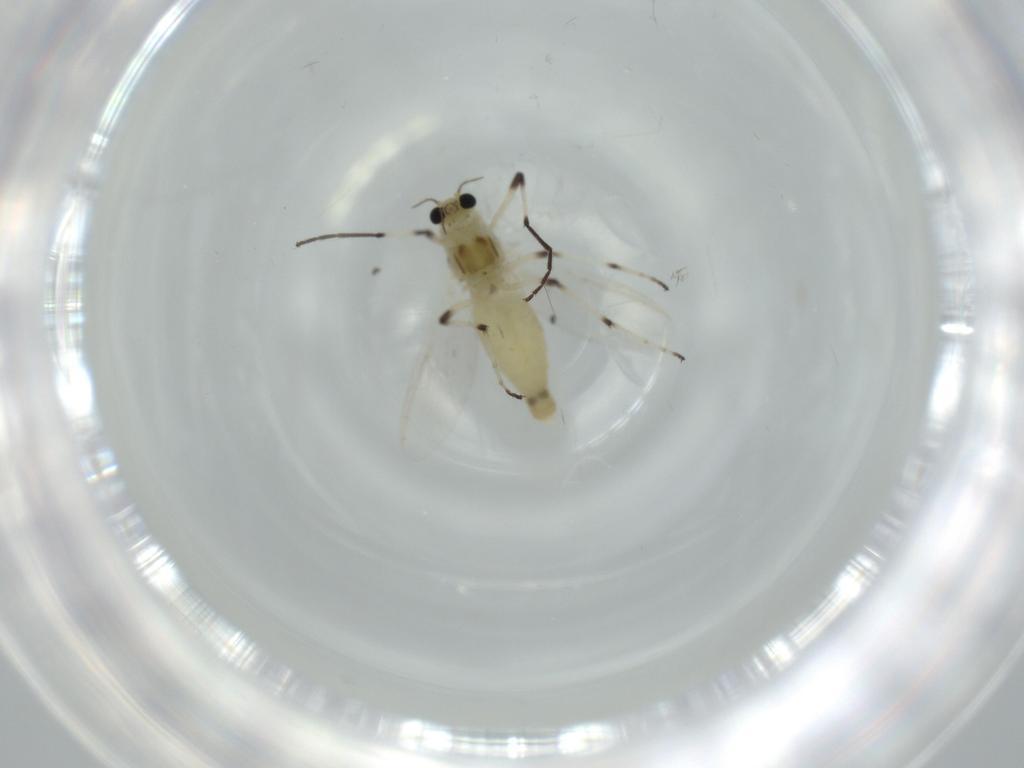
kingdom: Animalia
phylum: Arthropoda
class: Insecta
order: Diptera
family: Chironomidae
